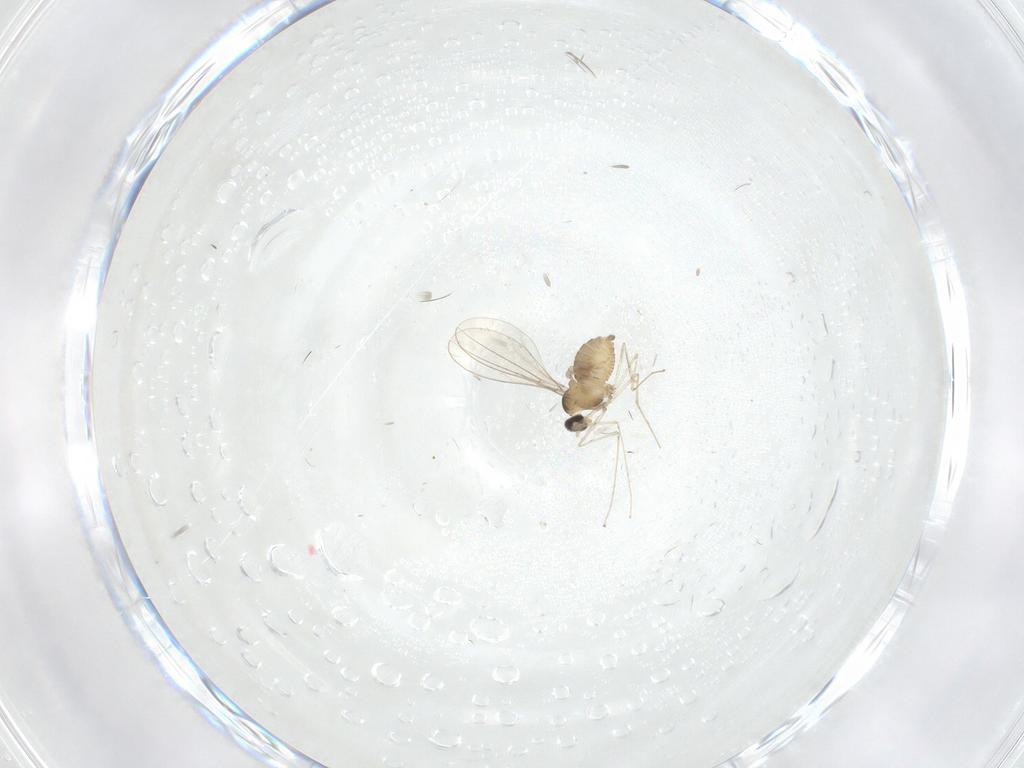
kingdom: Animalia
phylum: Arthropoda
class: Insecta
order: Diptera
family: Cecidomyiidae
